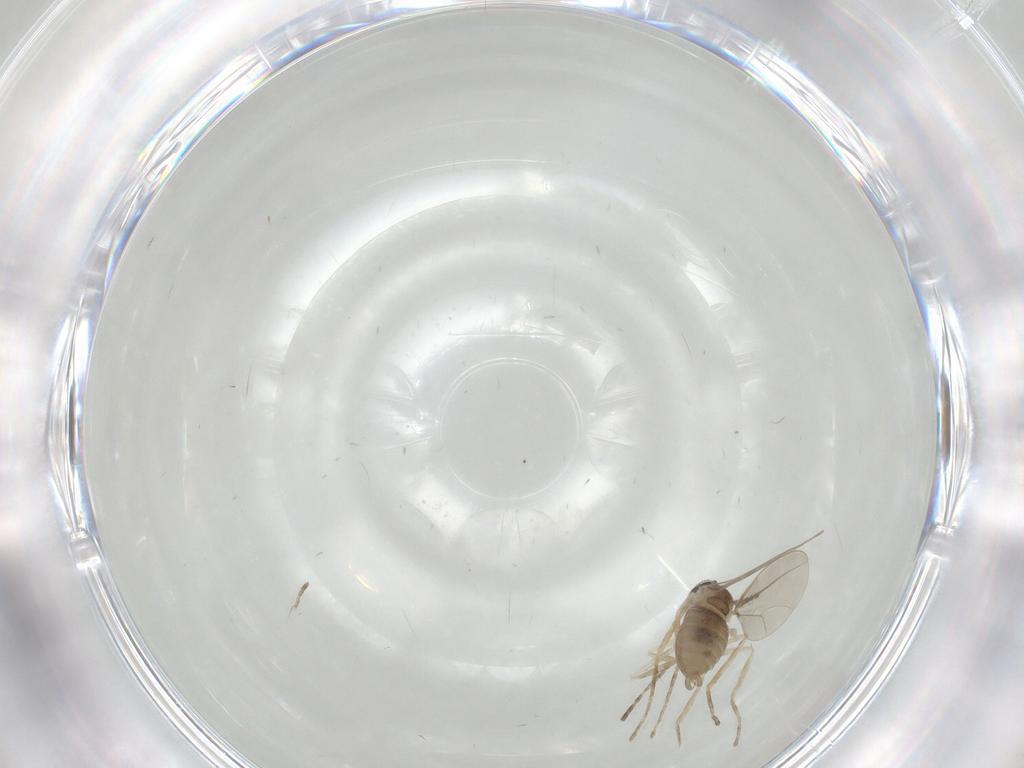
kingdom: Animalia
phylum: Arthropoda
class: Insecta
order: Diptera
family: Cecidomyiidae
